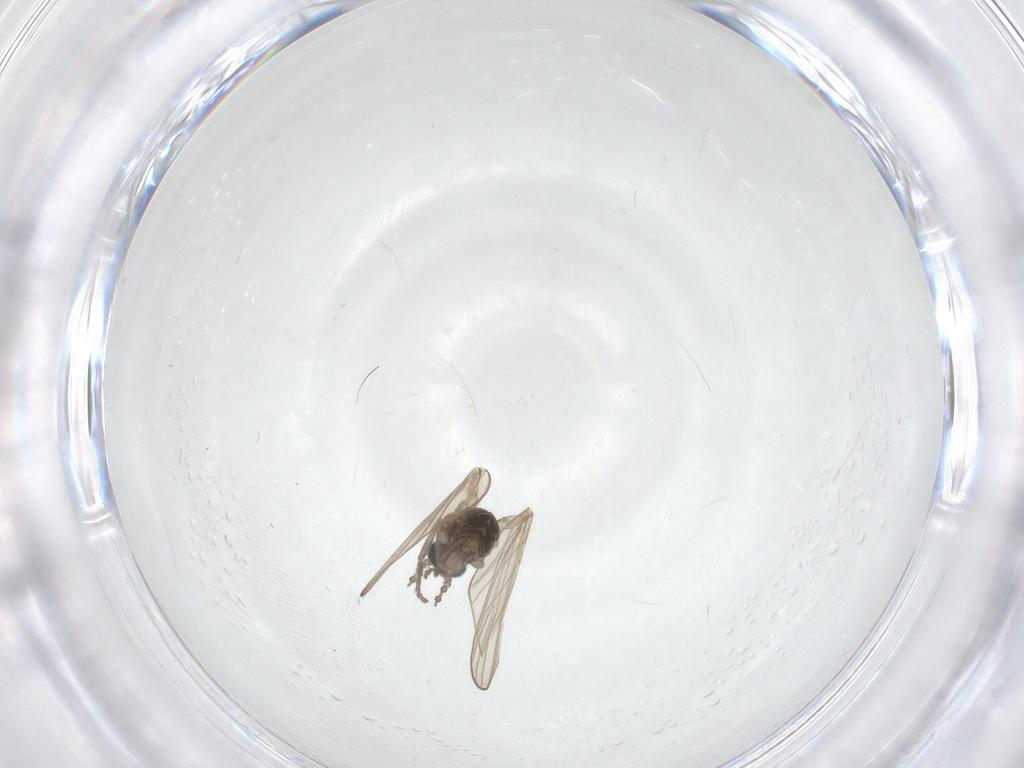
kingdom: Animalia
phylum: Arthropoda
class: Insecta
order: Diptera
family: Psychodidae
